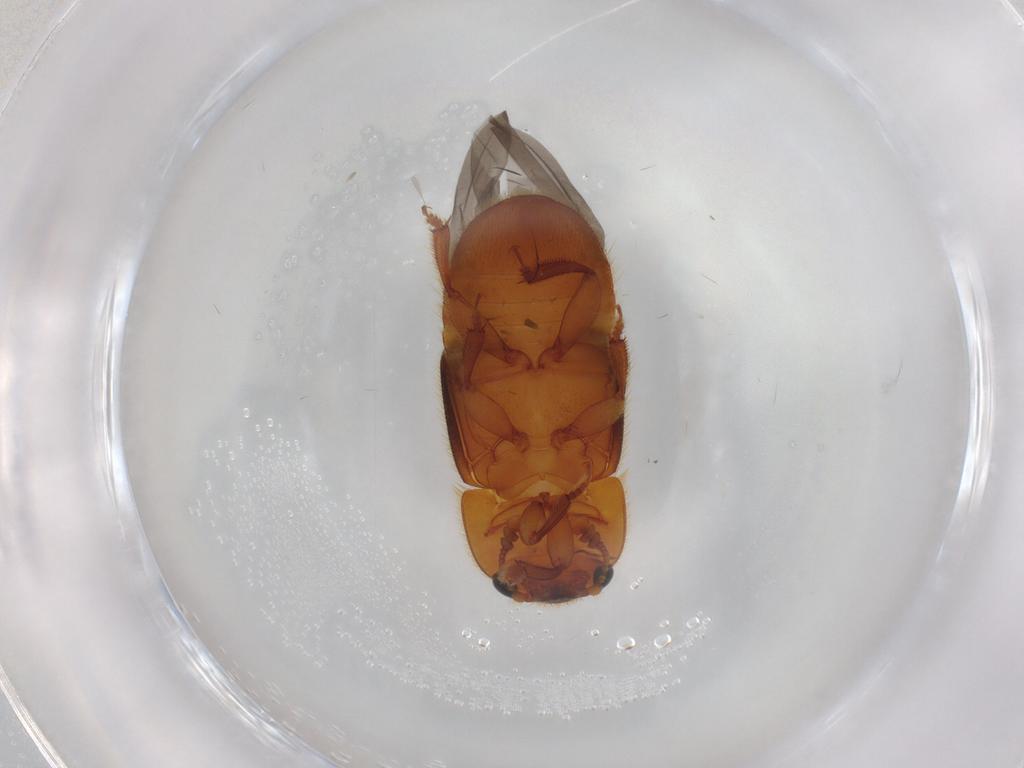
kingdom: Animalia
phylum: Arthropoda
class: Insecta
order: Coleoptera
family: Nitidulidae
